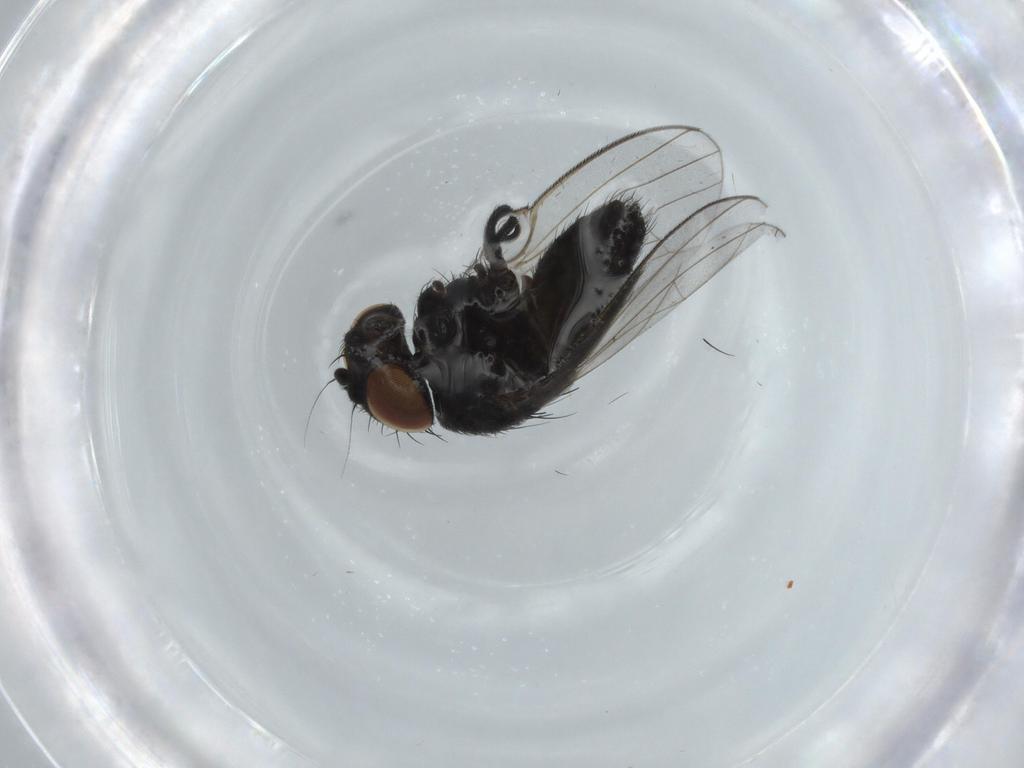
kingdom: Animalia
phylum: Arthropoda
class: Insecta
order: Diptera
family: Milichiidae
